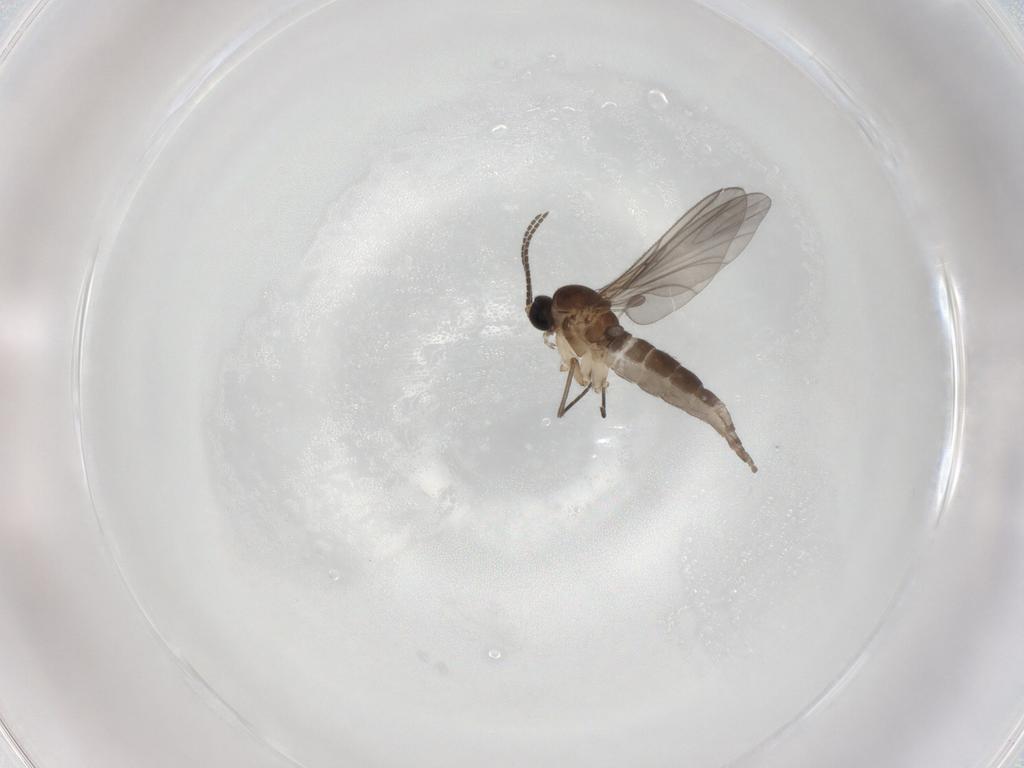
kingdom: Animalia
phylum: Arthropoda
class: Insecta
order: Diptera
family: Sciaridae
